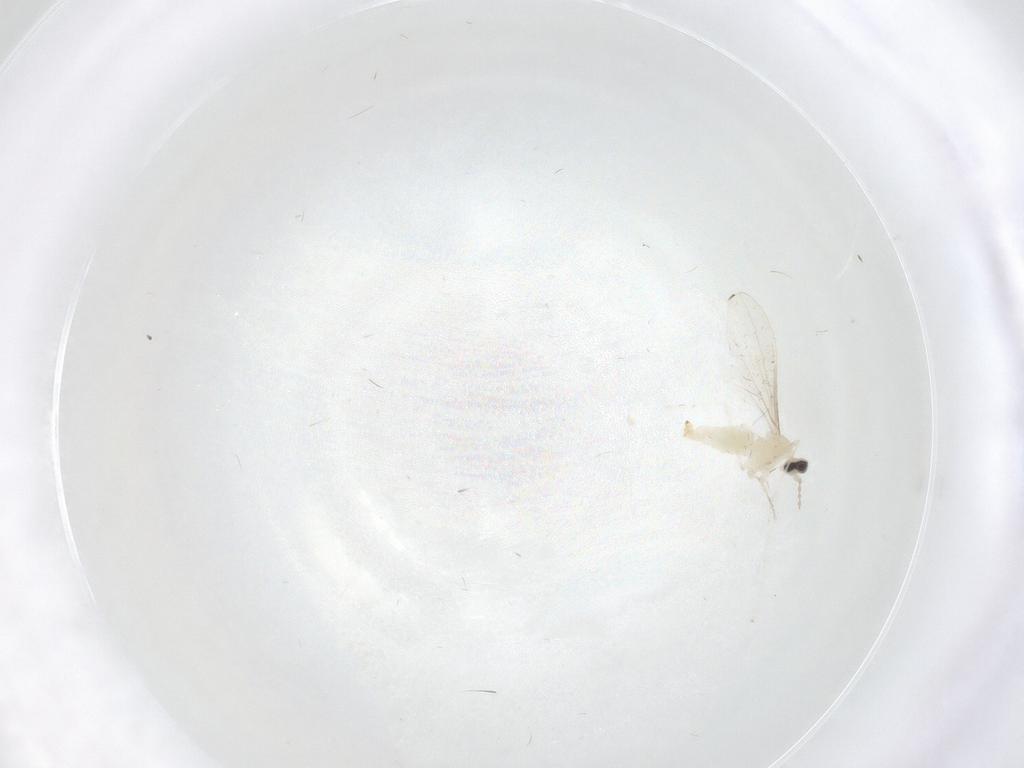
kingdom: Animalia
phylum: Arthropoda
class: Insecta
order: Diptera
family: Cecidomyiidae
